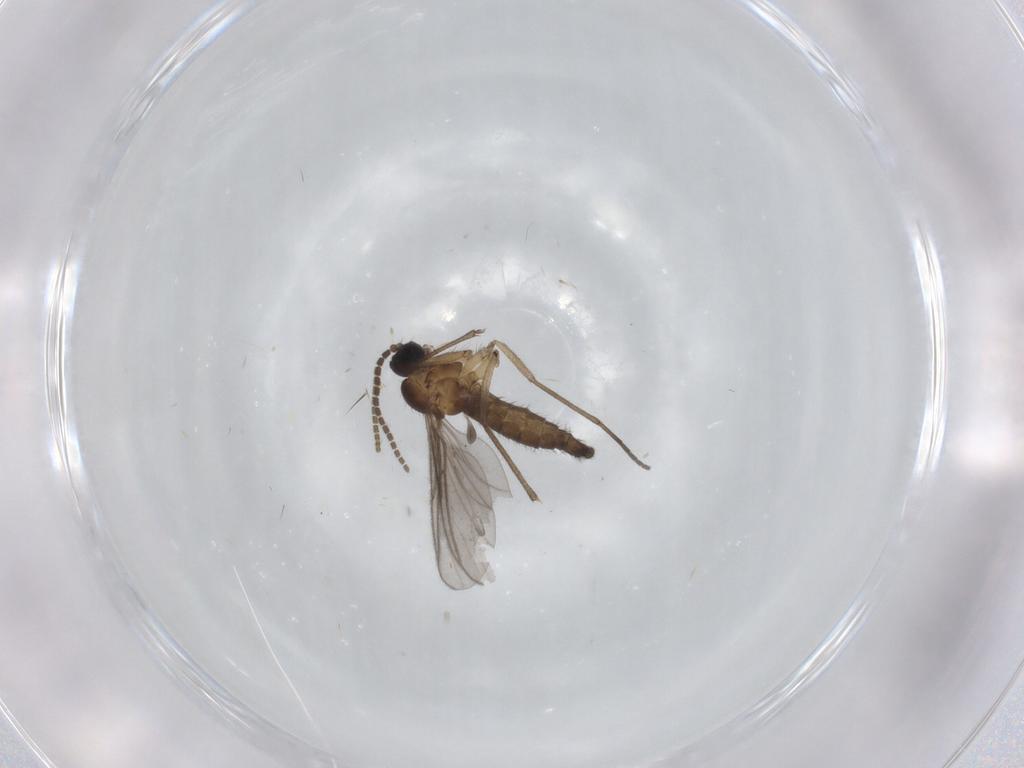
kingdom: Animalia
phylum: Arthropoda
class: Insecta
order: Diptera
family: Sciaridae
